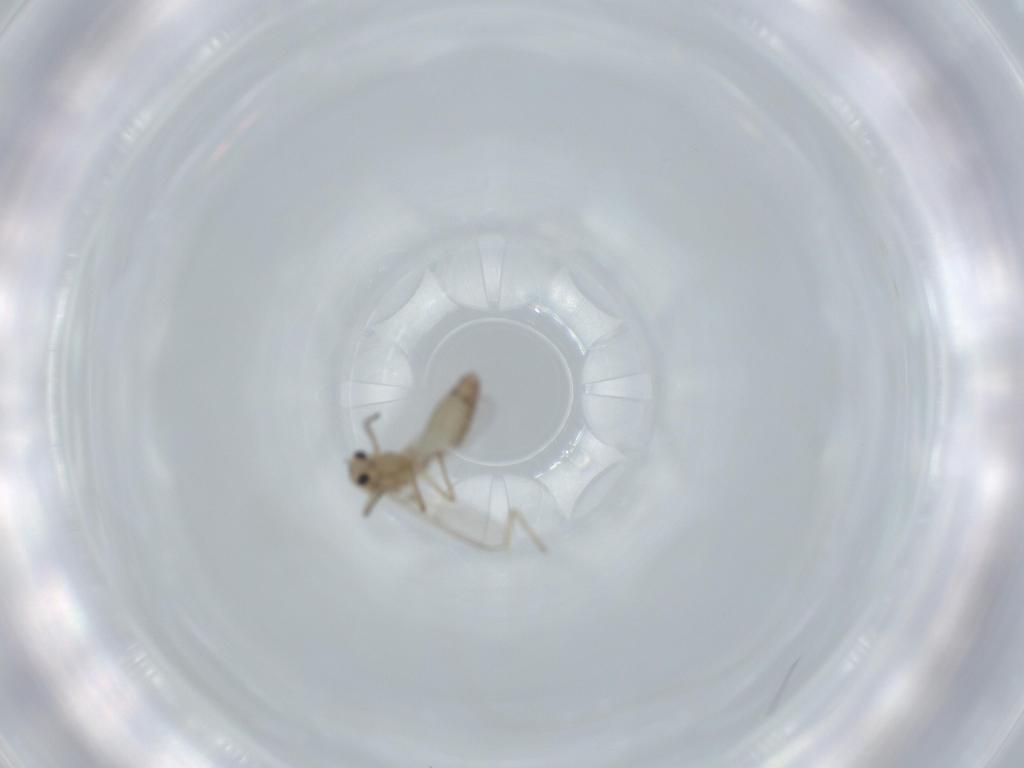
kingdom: Animalia
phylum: Arthropoda
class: Insecta
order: Diptera
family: Chironomidae
